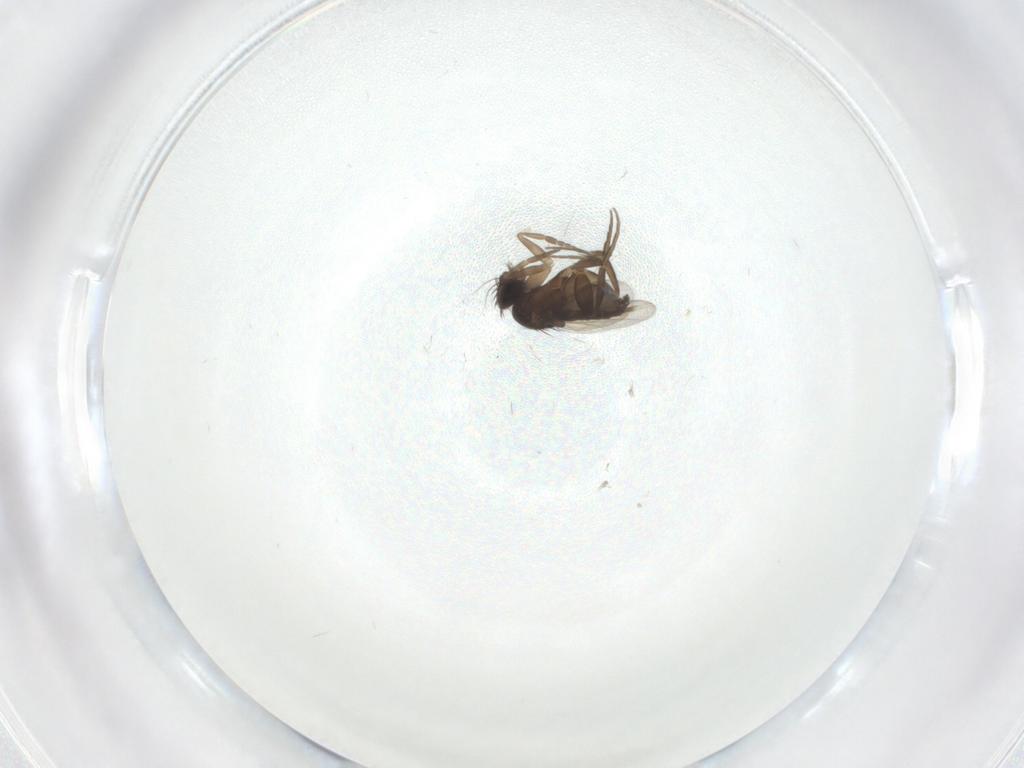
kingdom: Animalia
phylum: Arthropoda
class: Insecta
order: Diptera
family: Phoridae
